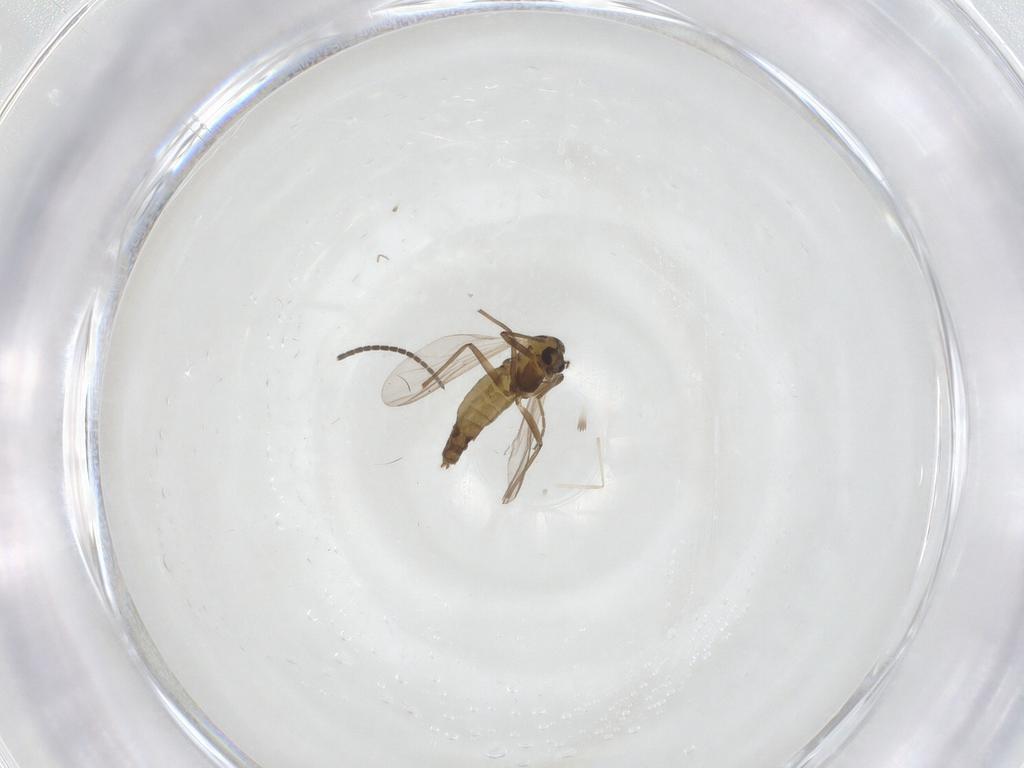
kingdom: Animalia
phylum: Arthropoda
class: Insecta
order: Diptera
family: Chironomidae
